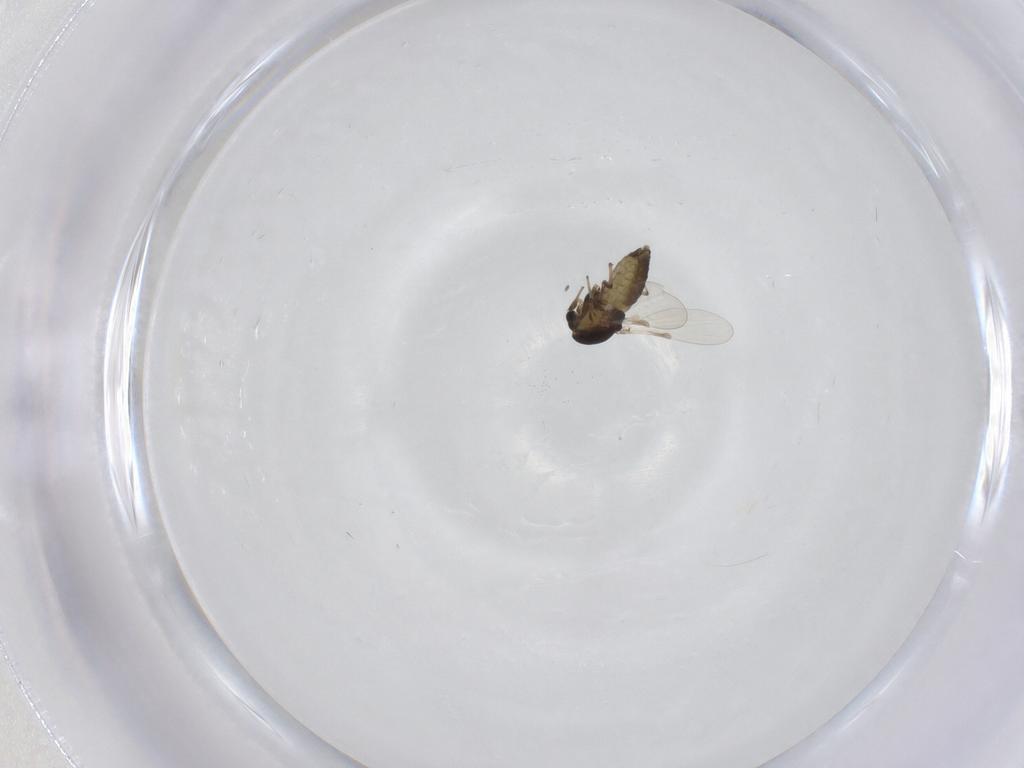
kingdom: Animalia
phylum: Arthropoda
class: Insecta
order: Diptera
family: Chironomidae
